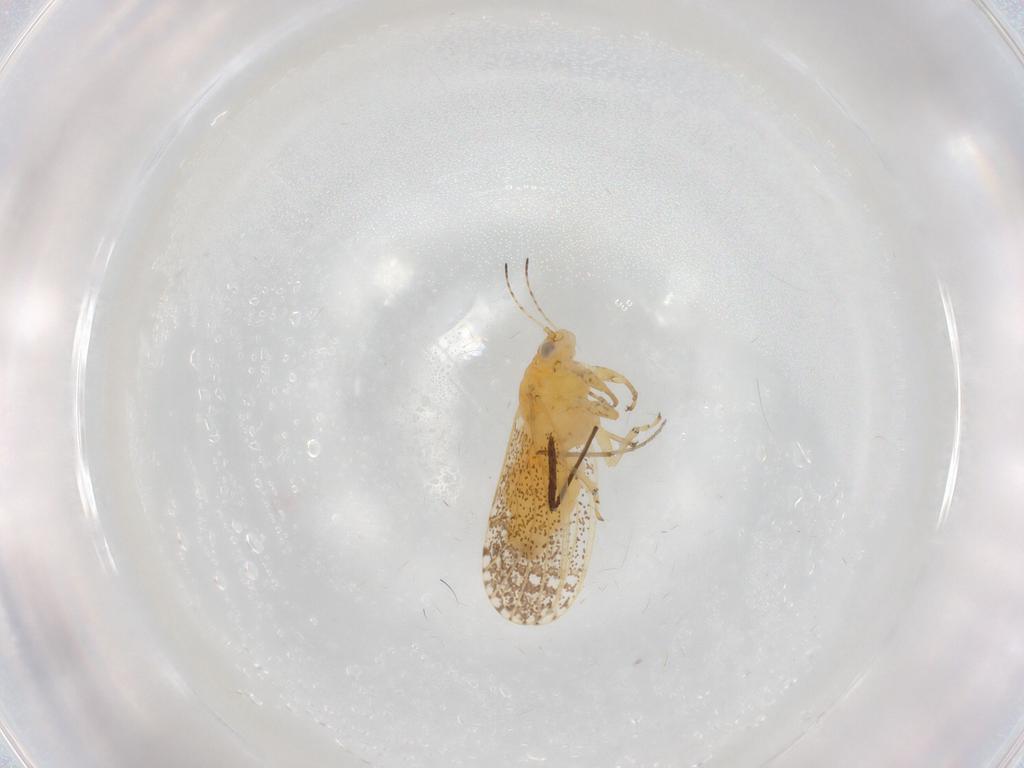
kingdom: Animalia
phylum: Arthropoda
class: Insecta
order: Hemiptera
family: Psyllidae
